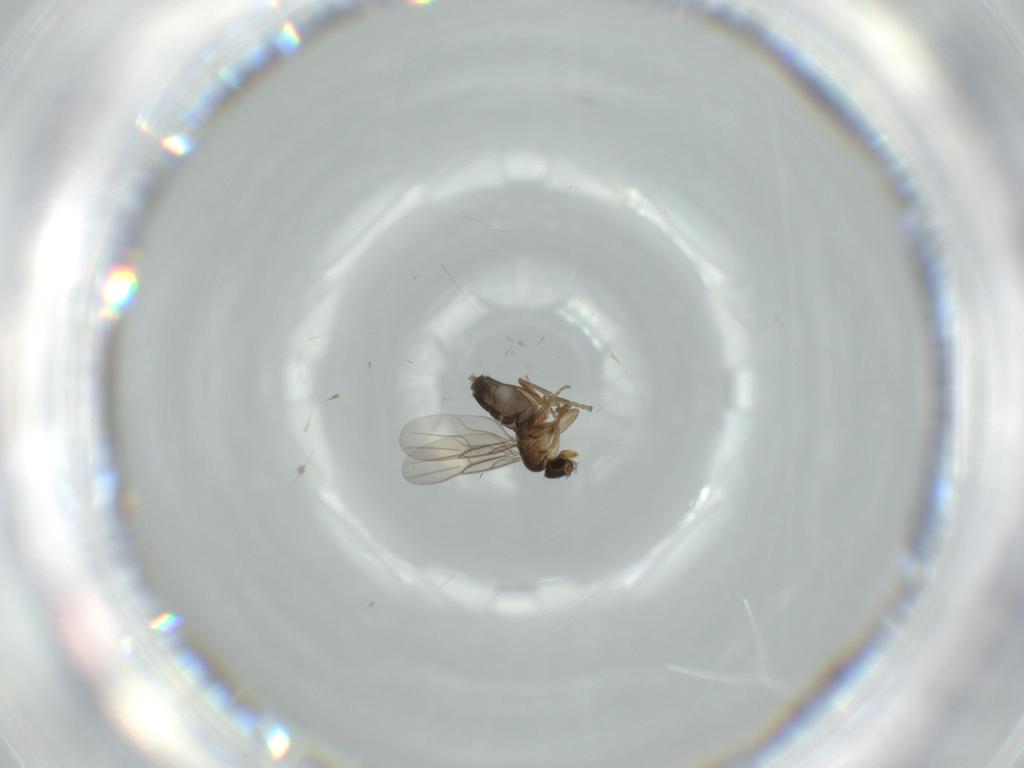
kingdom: Animalia
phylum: Arthropoda
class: Insecta
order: Diptera
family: Phoridae
